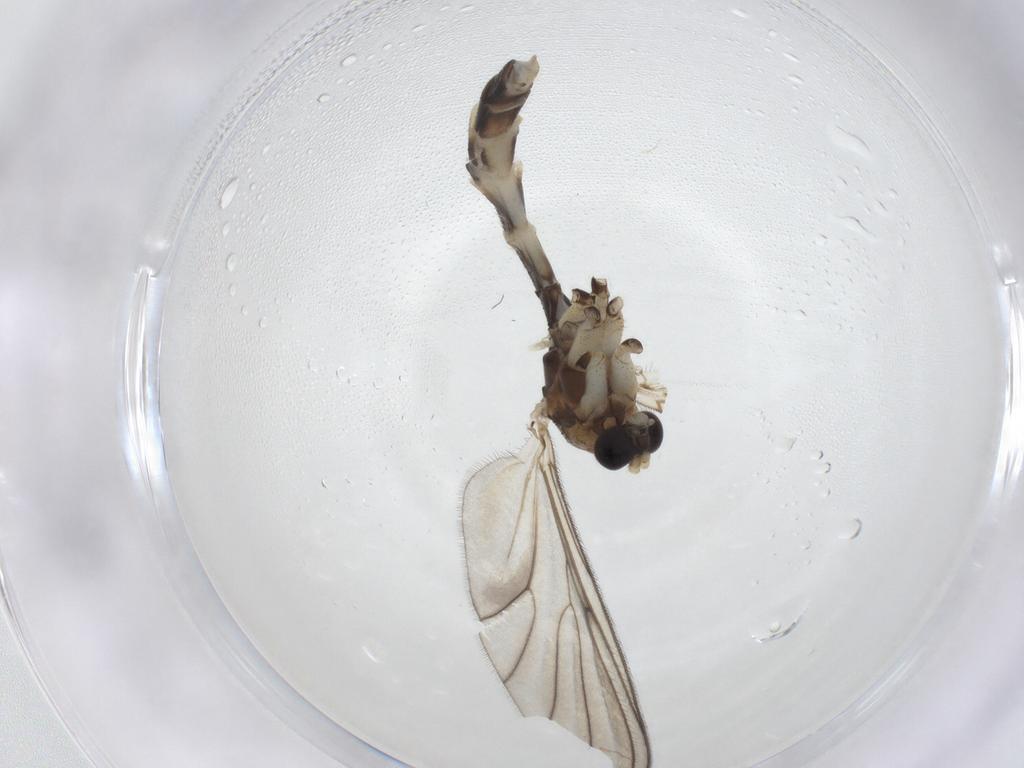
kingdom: Animalia
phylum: Arthropoda
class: Insecta
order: Diptera
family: Mycetophilidae
